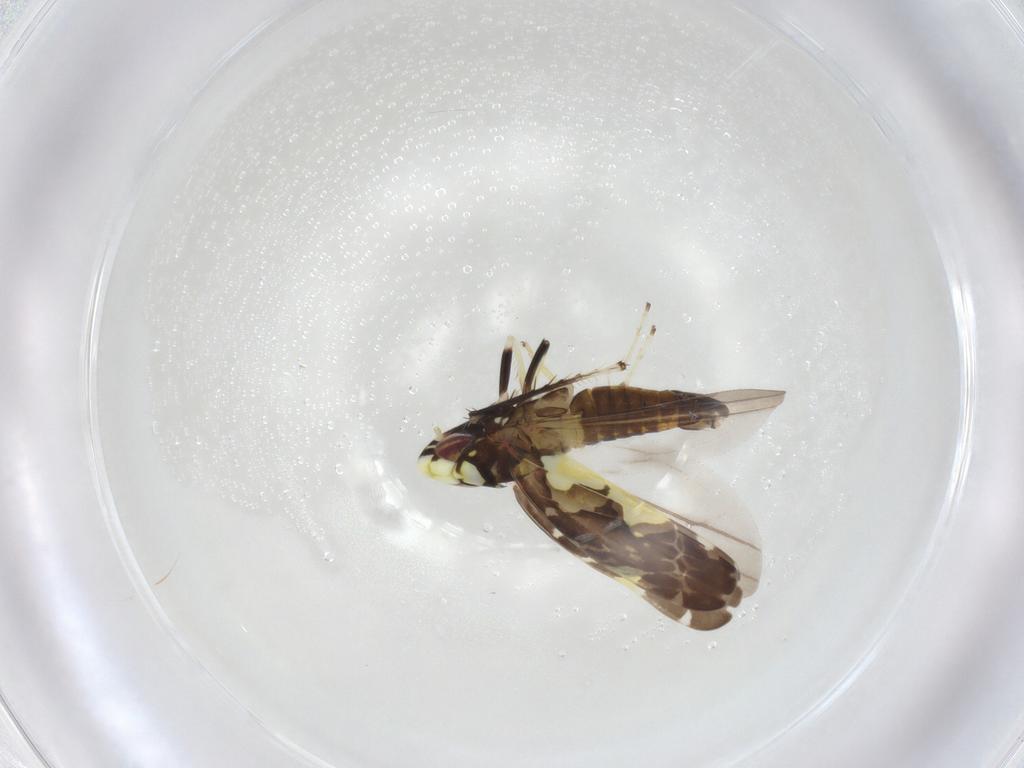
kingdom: Animalia
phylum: Arthropoda
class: Insecta
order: Hemiptera
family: Cicadellidae
